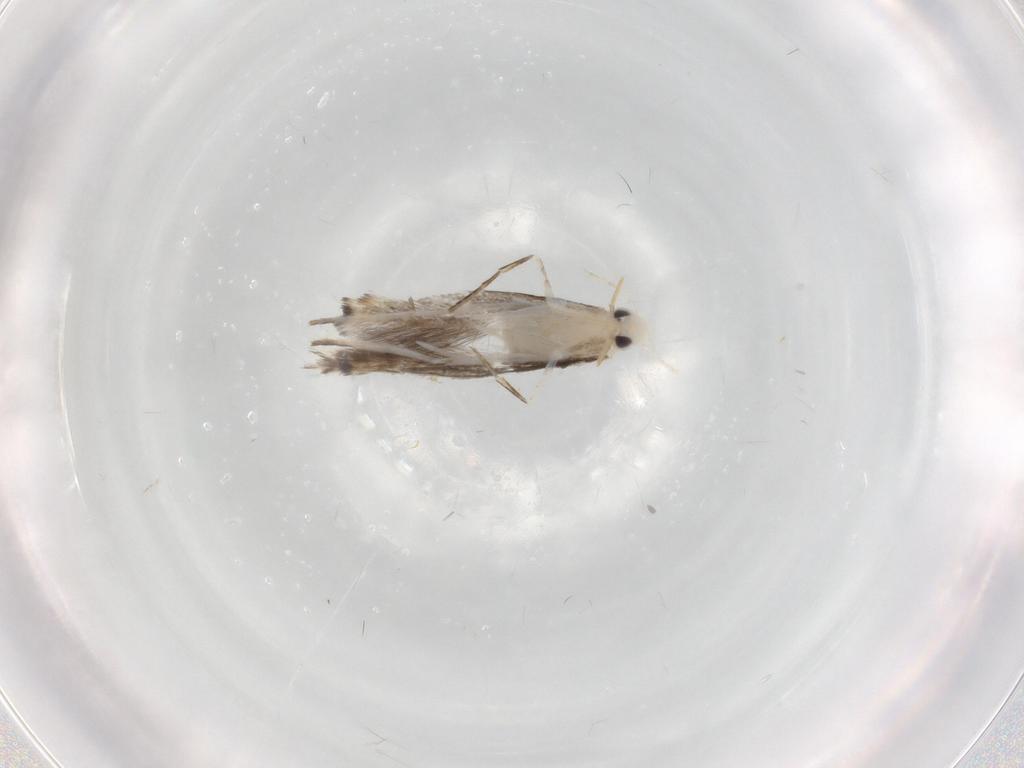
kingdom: Animalia
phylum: Arthropoda
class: Insecta
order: Lepidoptera
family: Nepticulidae
